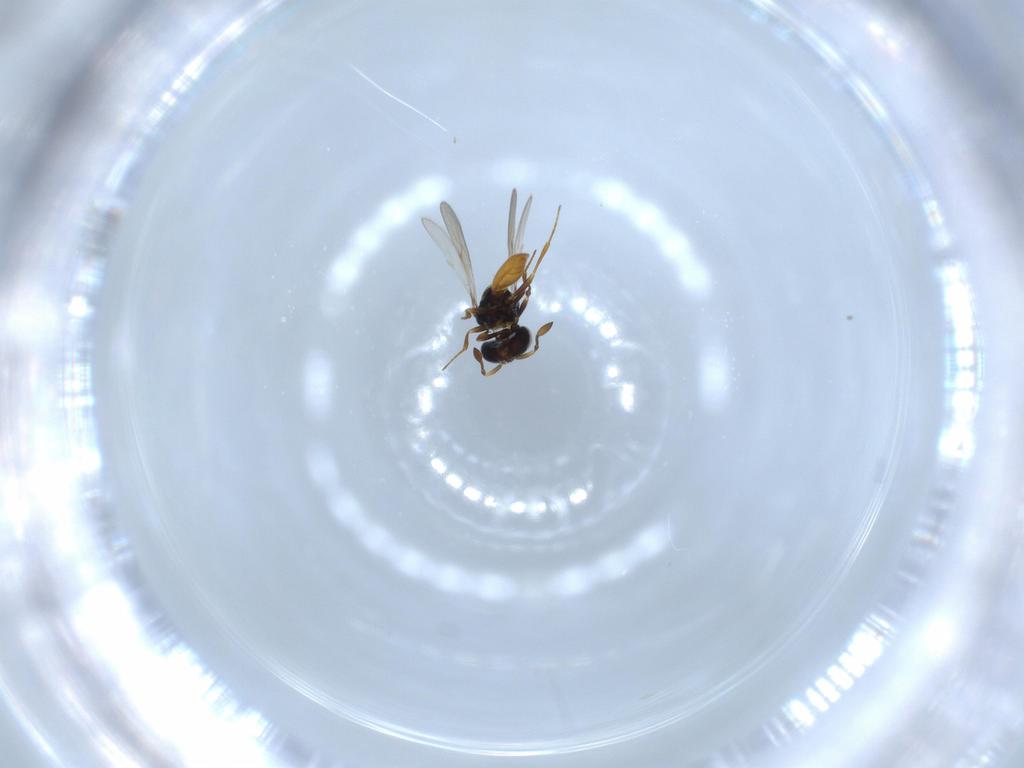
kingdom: Animalia
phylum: Arthropoda
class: Insecta
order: Hymenoptera
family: Scelionidae
